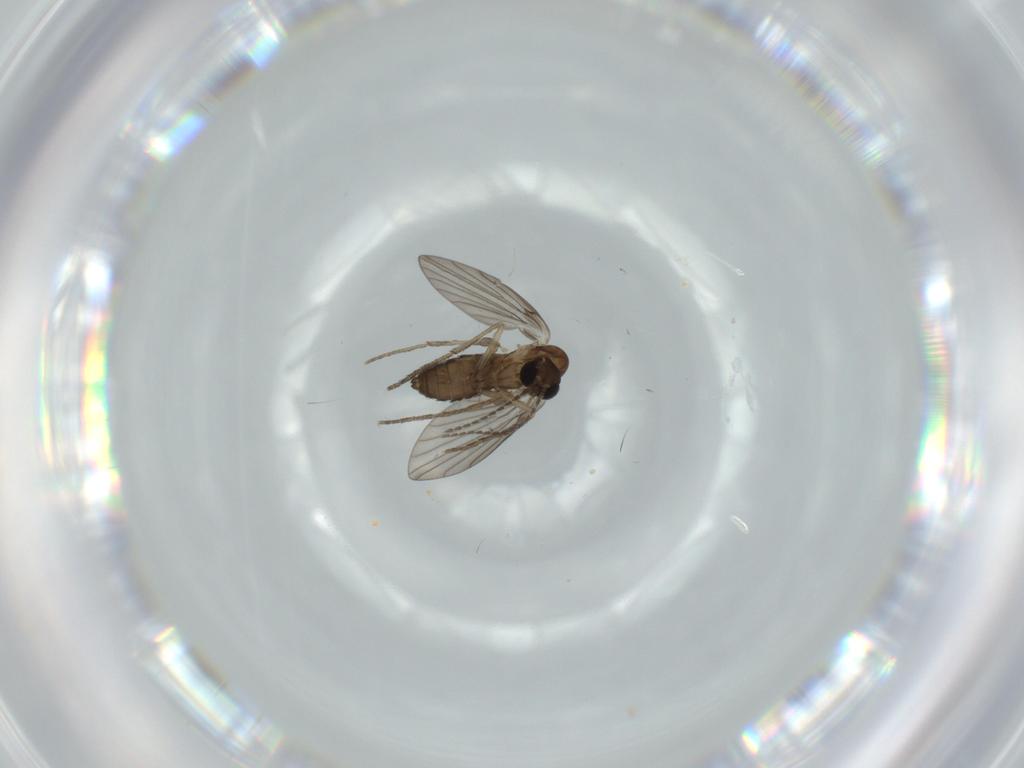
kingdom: Animalia
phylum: Arthropoda
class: Insecta
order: Diptera
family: Psychodidae
